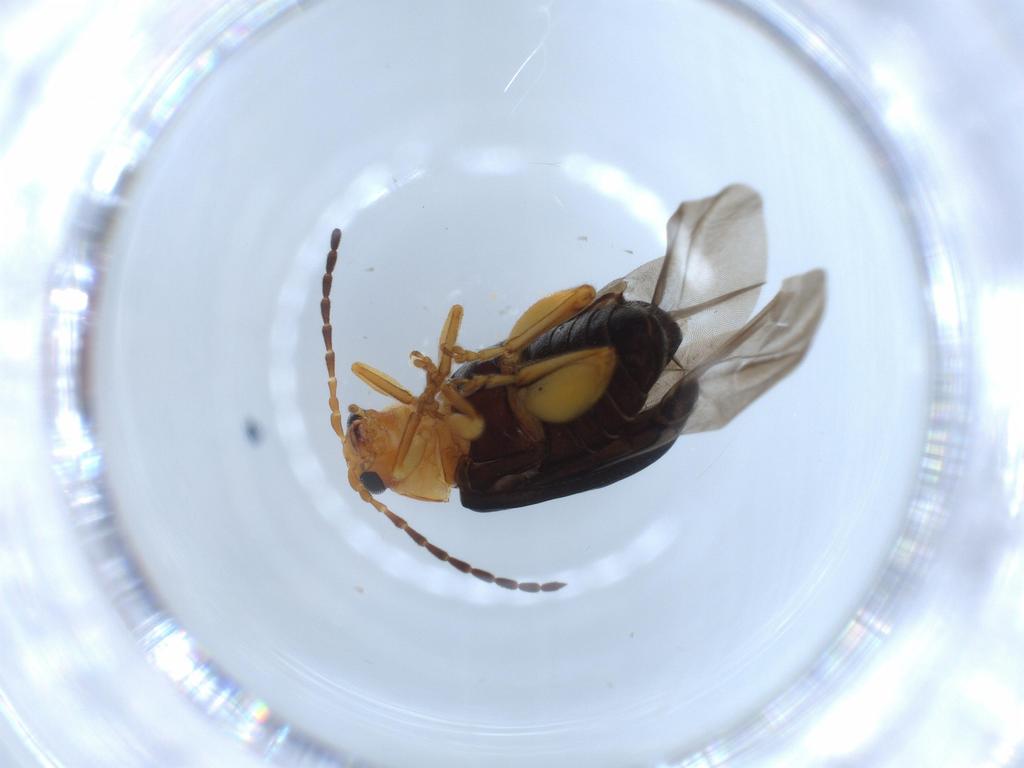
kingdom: Animalia
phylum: Arthropoda
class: Insecta
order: Coleoptera
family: Chrysomelidae
